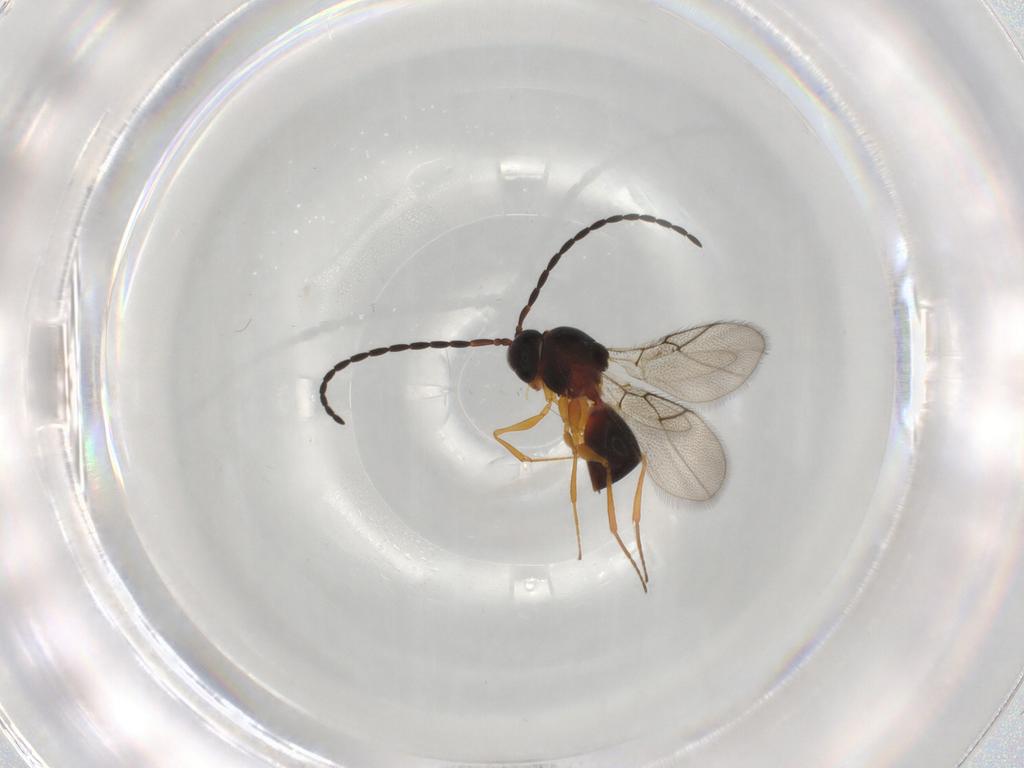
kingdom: Animalia
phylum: Arthropoda
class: Insecta
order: Hymenoptera
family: Figitidae
